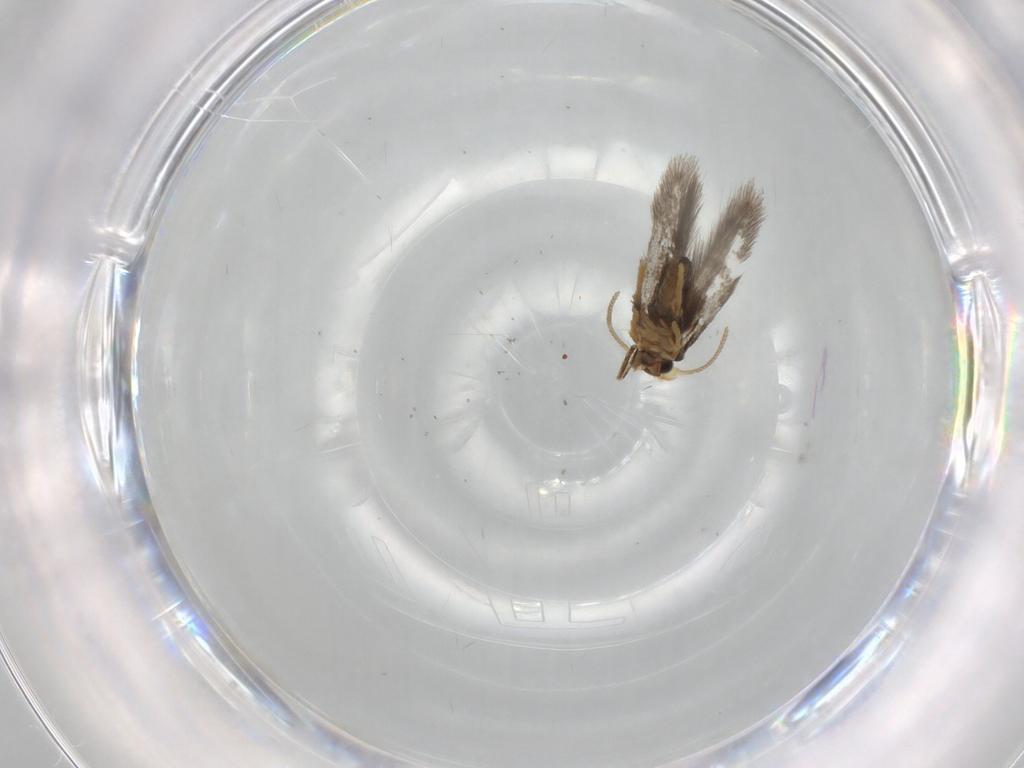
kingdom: Animalia
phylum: Arthropoda
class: Insecta
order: Lepidoptera
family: Nepticulidae
